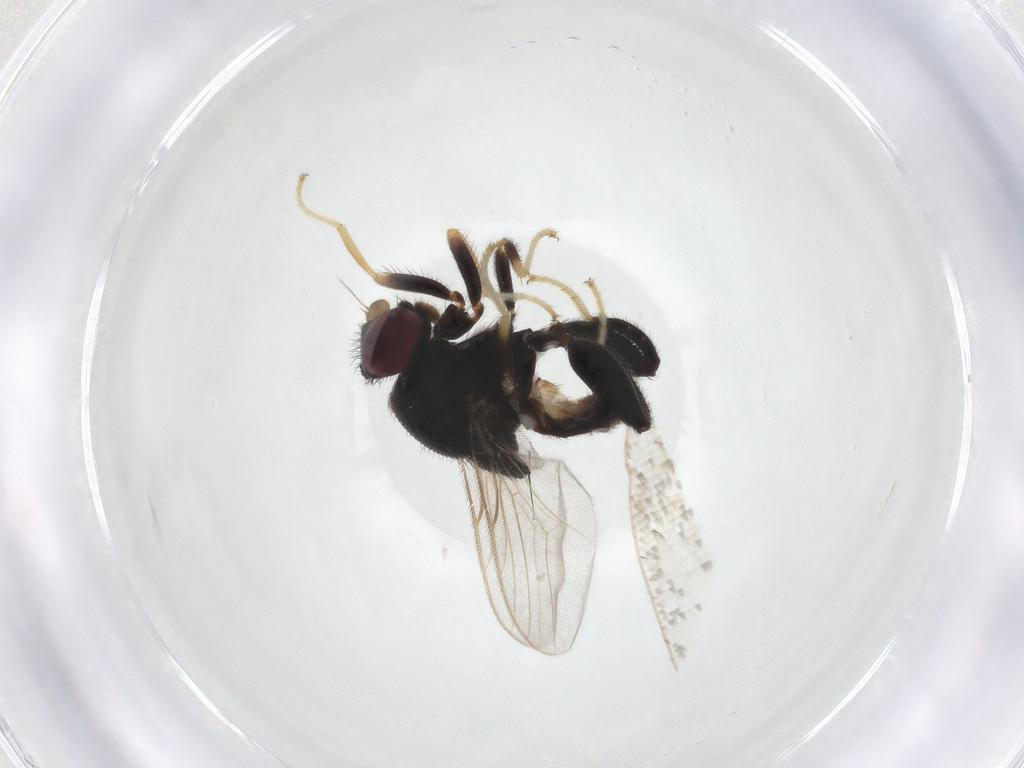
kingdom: Animalia
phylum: Arthropoda
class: Insecta
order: Diptera
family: Chloropidae
